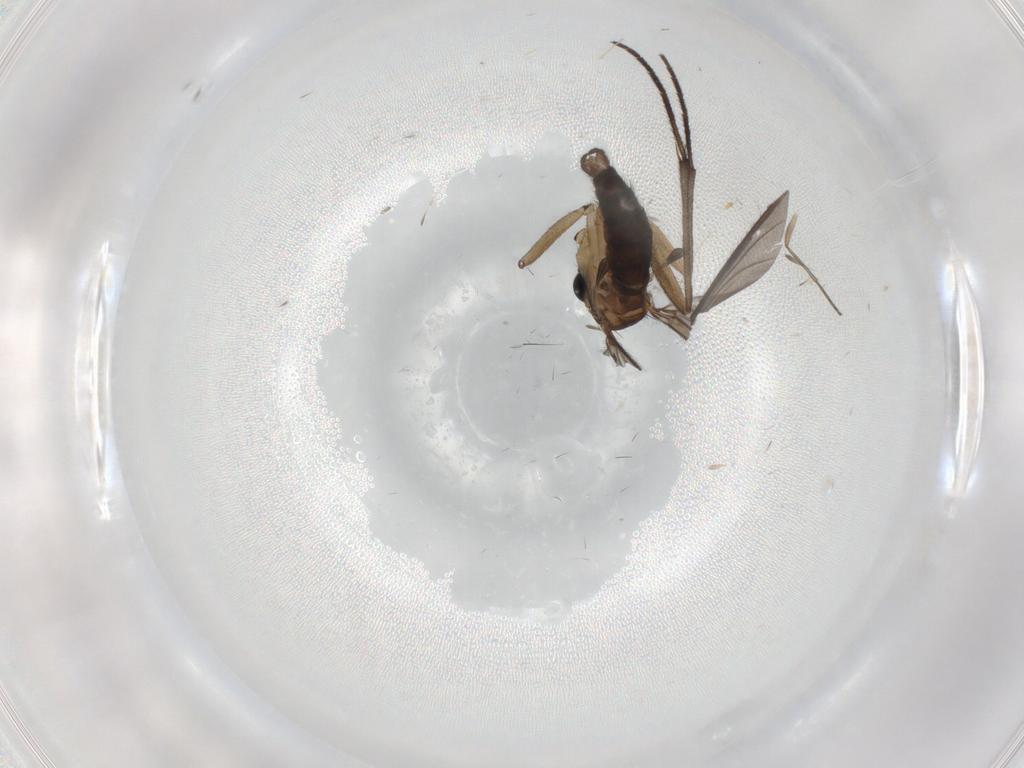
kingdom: Animalia
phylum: Arthropoda
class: Insecta
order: Diptera
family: Sciaridae
